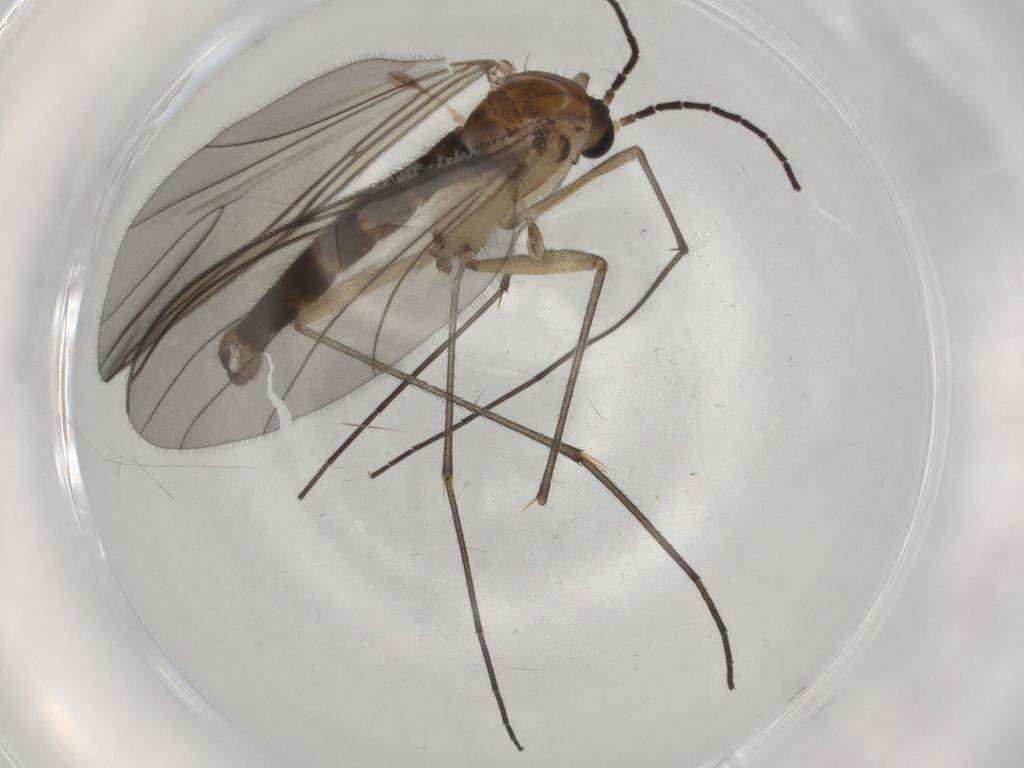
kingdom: Animalia
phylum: Arthropoda
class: Insecta
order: Diptera
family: Sciaridae
